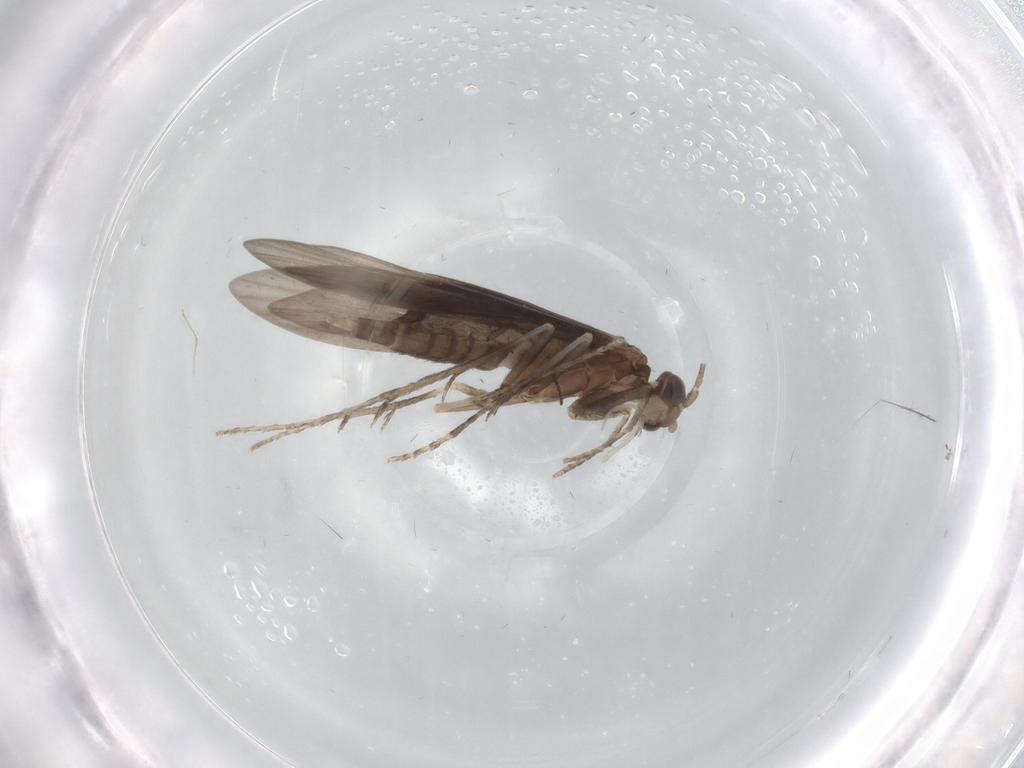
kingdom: Animalia
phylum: Arthropoda
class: Insecta
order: Trichoptera
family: Xiphocentronidae
